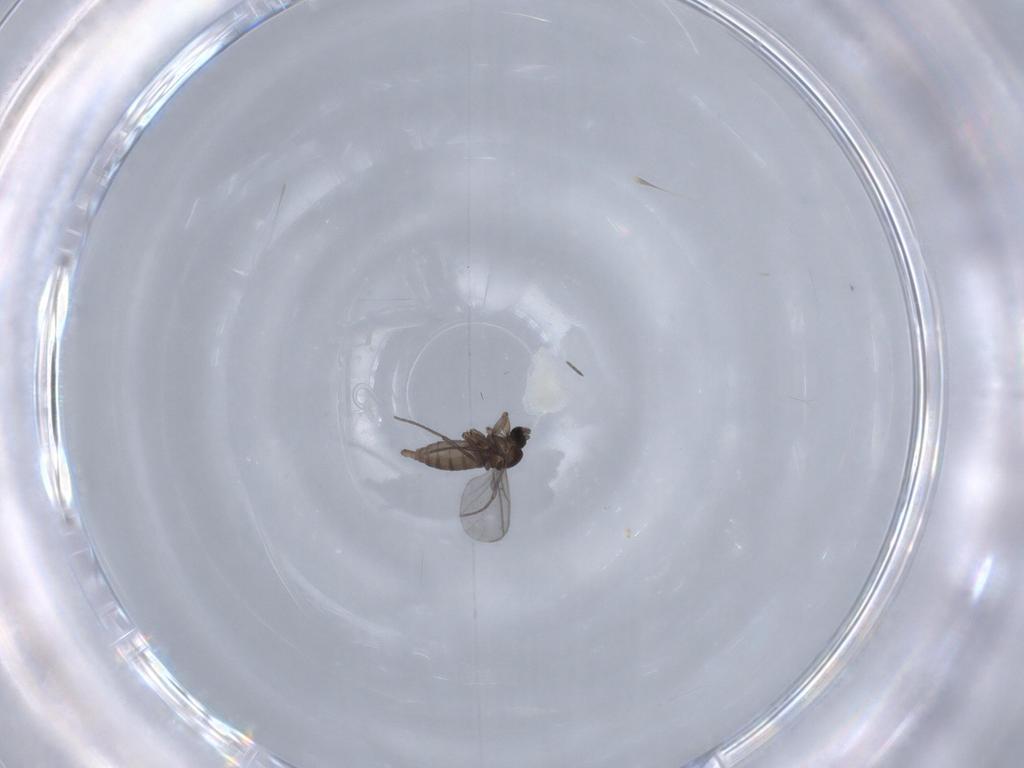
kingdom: Animalia
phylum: Arthropoda
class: Insecta
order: Diptera
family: Sciaridae
